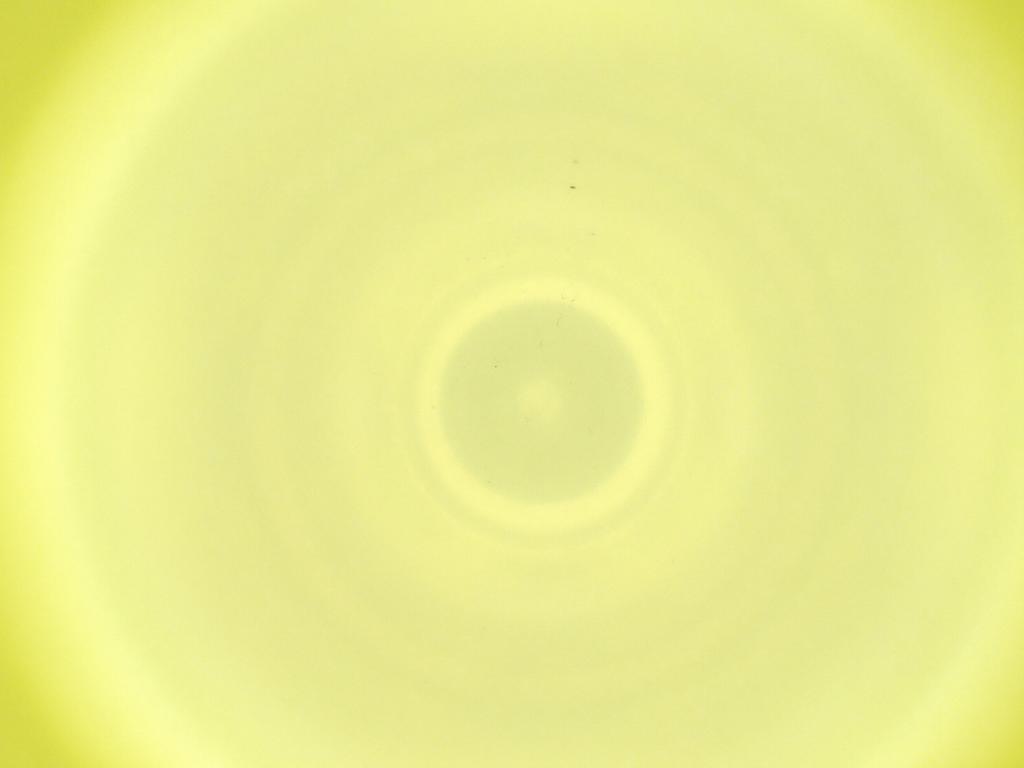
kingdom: Animalia
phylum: Arthropoda
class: Insecta
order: Diptera
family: Cecidomyiidae
